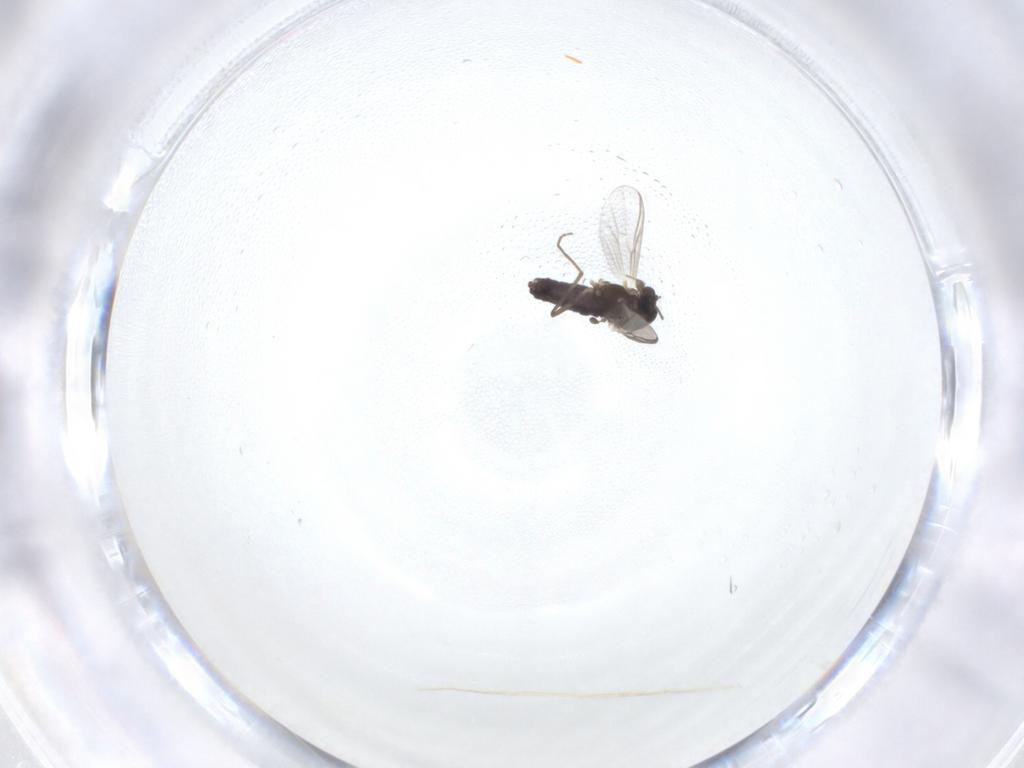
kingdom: Animalia
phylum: Arthropoda
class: Insecta
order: Diptera
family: Chironomidae
